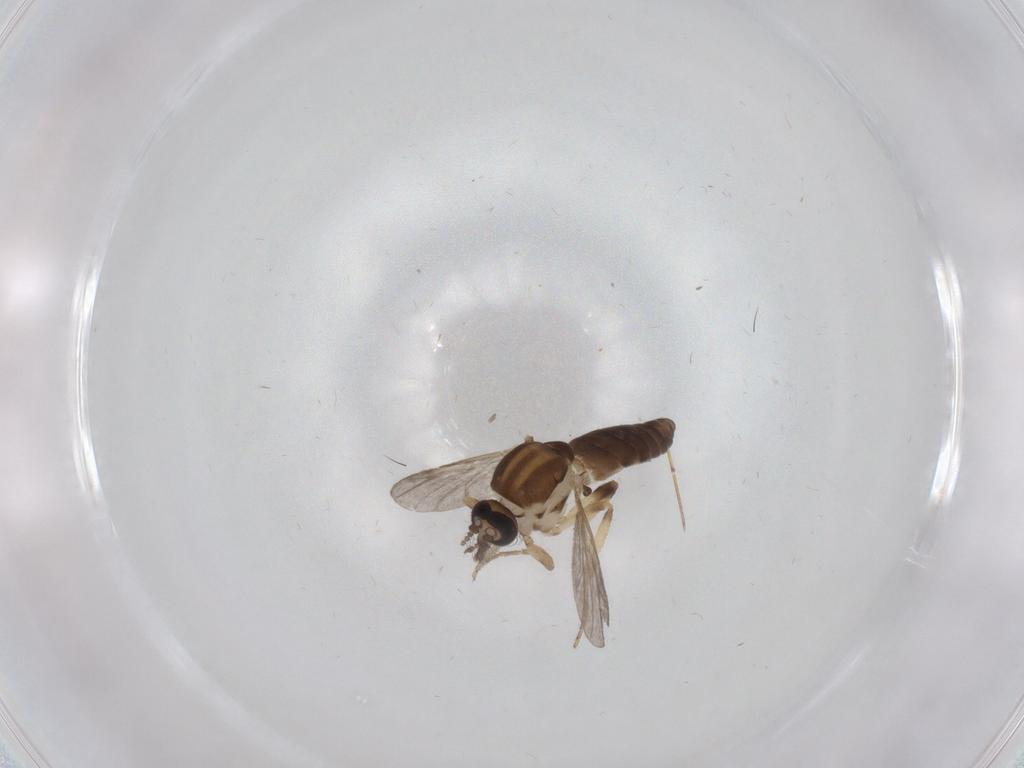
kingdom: Animalia
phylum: Arthropoda
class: Insecta
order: Diptera
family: Ceratopogonidae
